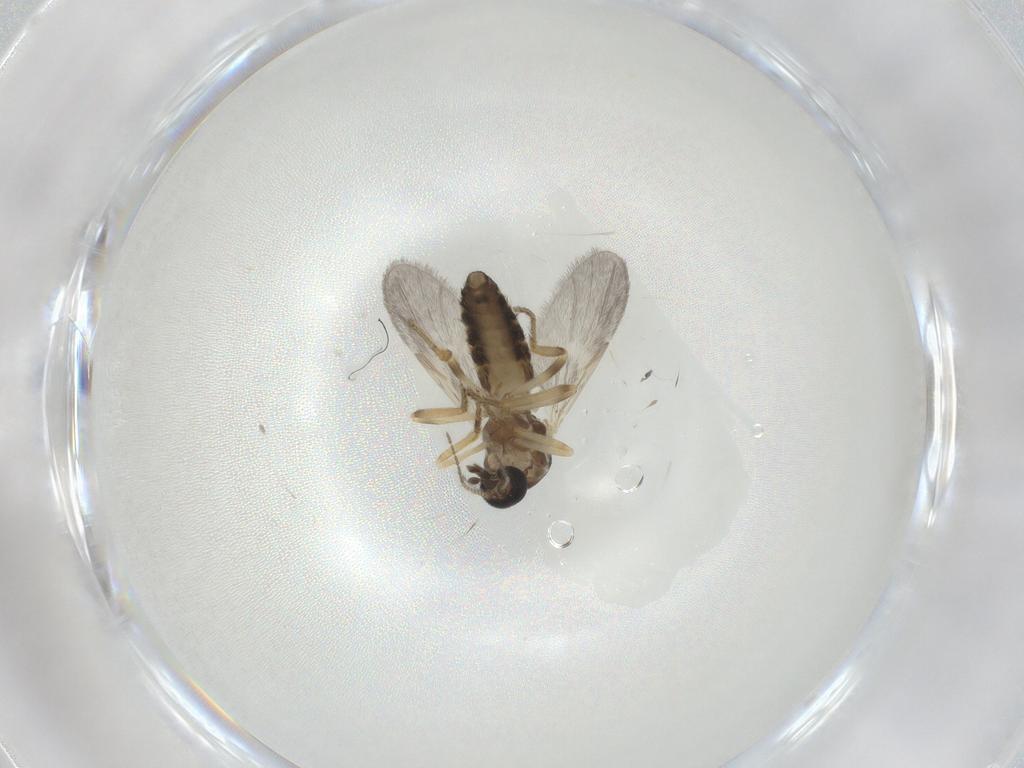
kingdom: Animalia
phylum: Arthropoda
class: Insecta
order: Diptera
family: Ceratopogonidae
